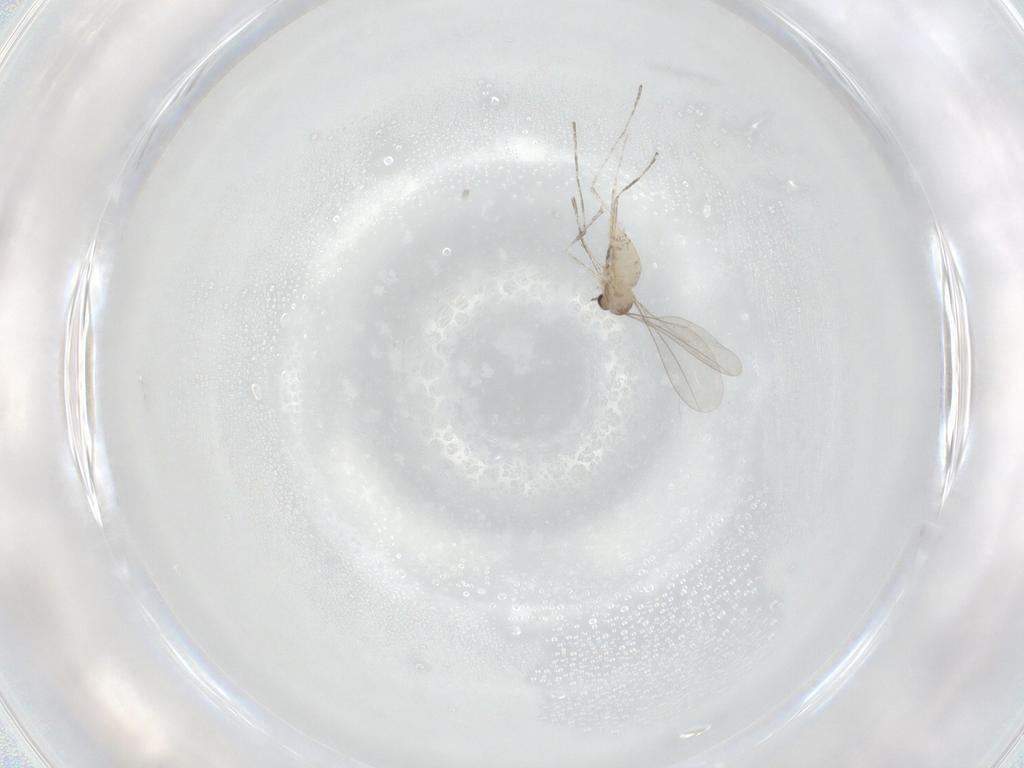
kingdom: Animalia
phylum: Arthropoda
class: Insecta
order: Diptera
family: Cecidomyiidae
